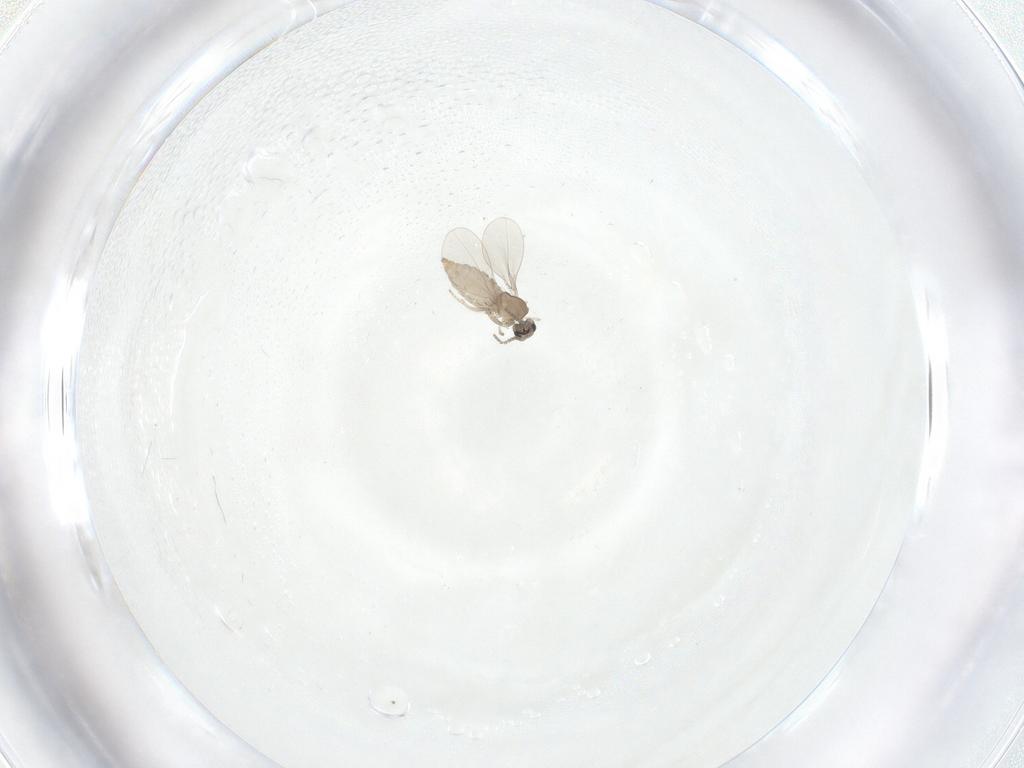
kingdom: Animalia
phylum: Arthropoda
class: Insecta
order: Diptera
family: Cecidomyiidae
